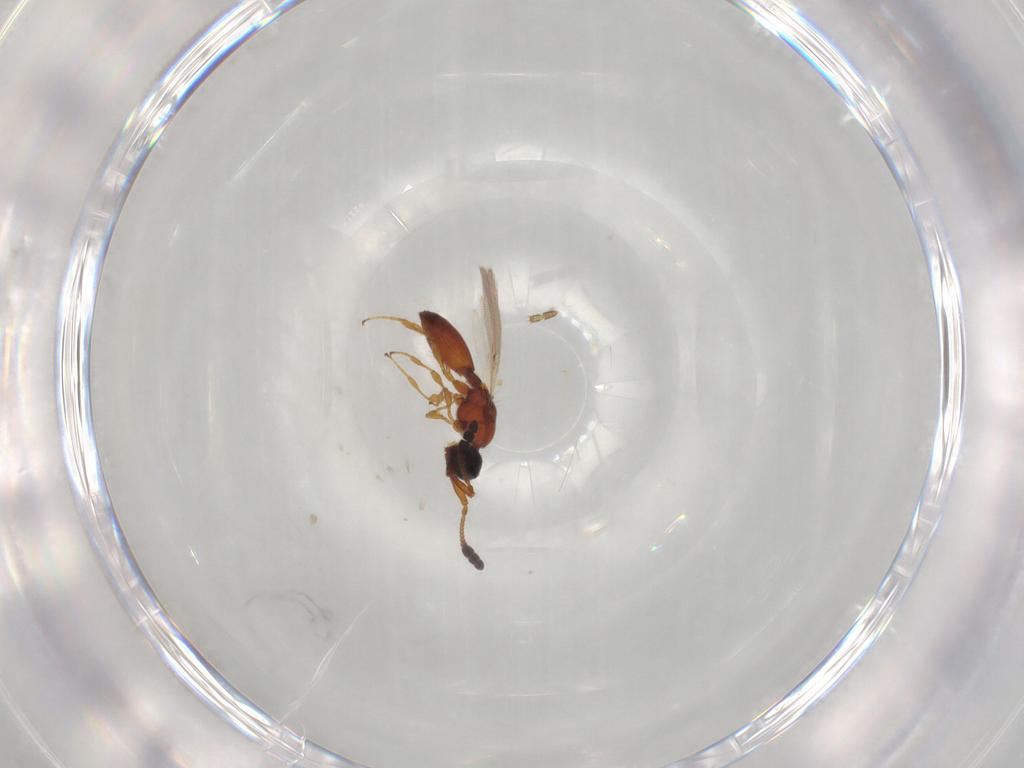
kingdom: Animalia
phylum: Arthropoda
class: Insecta
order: Hymenoptera
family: Diapriidae
